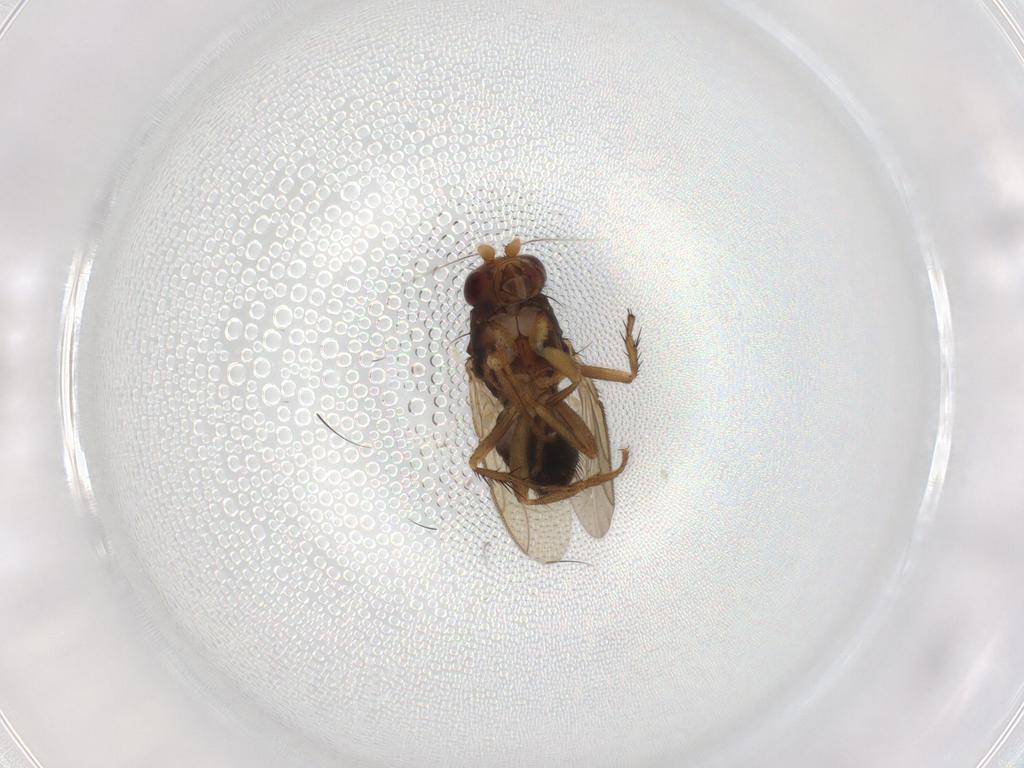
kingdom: Animalia
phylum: Arthropoda
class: Insecta
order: Diptera
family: Sphaeroceridae
